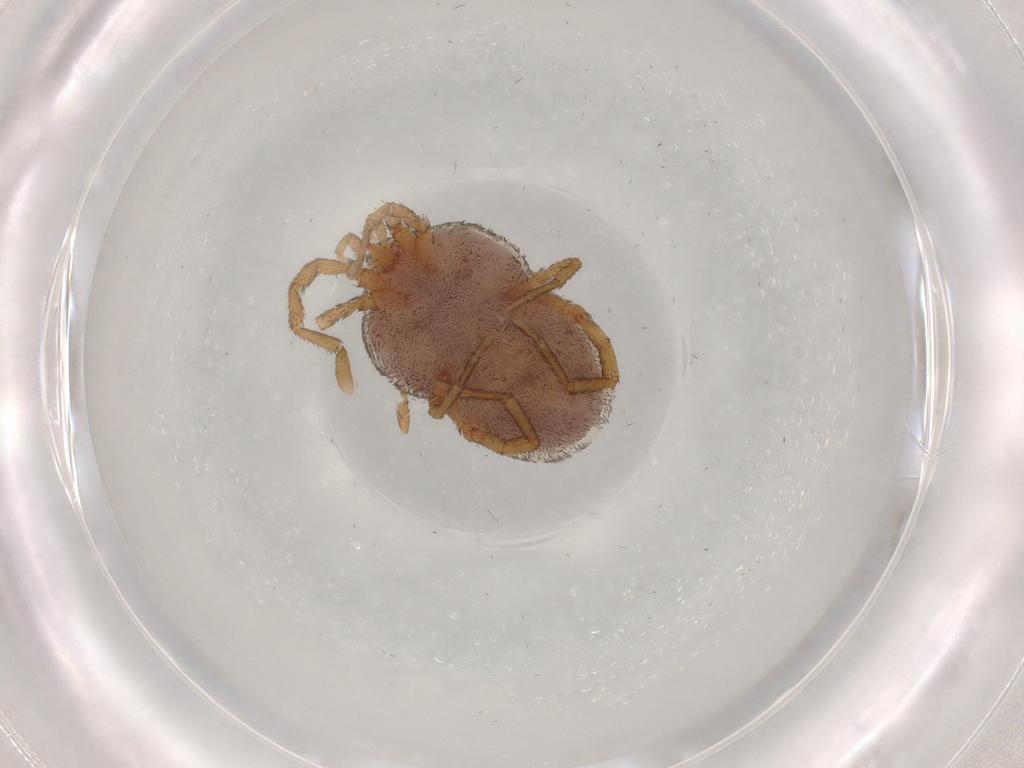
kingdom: Animalia
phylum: Arthropoda
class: Arachnida
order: Trombidiformes
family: Erythraeidae
